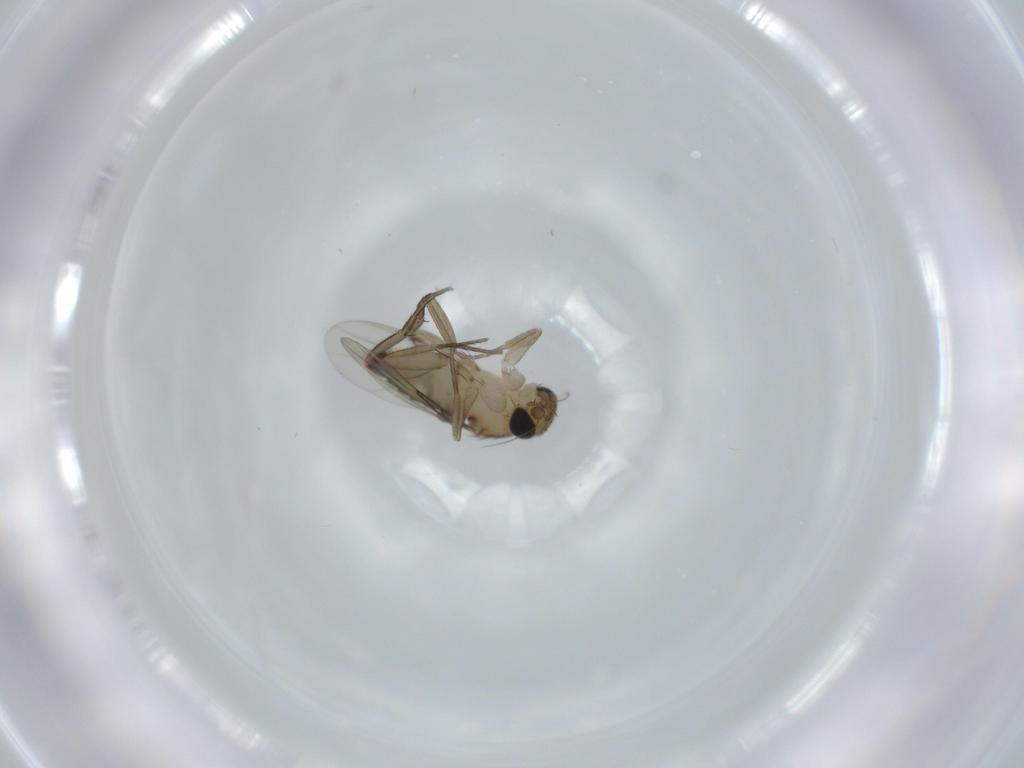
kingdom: Animalia
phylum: Arthropoda
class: Insecta
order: Diptera
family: Phoridae
